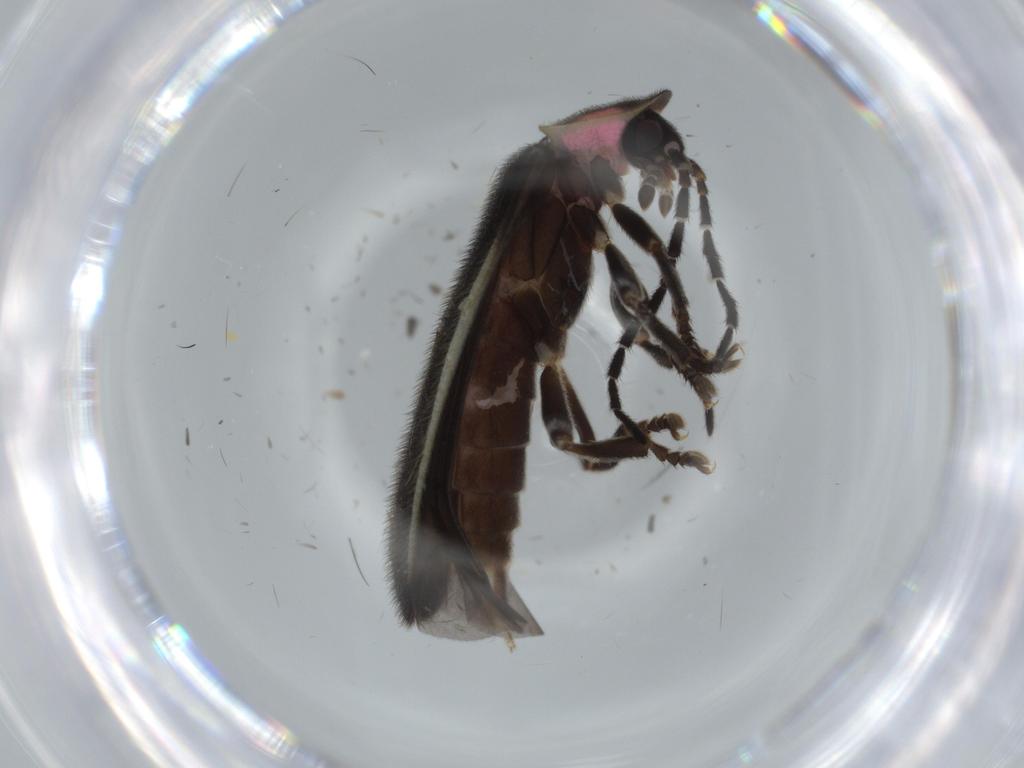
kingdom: Animalia
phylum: Arthropoda
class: Insecta
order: Coleoptera
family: Lampyridae
